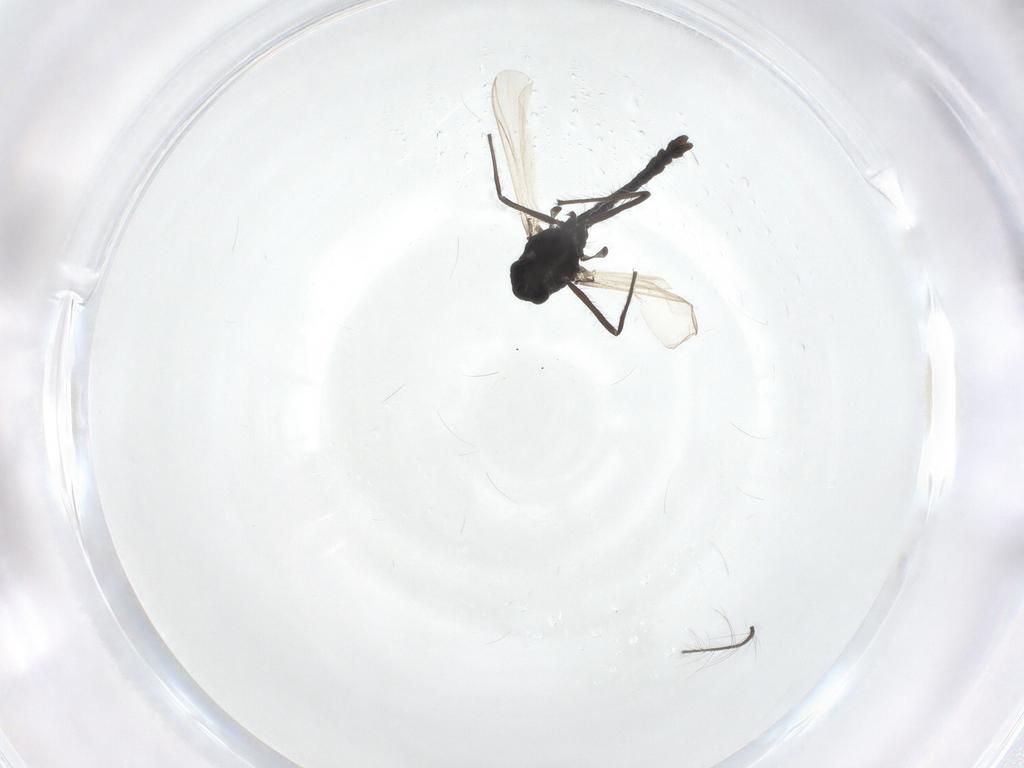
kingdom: Animalia
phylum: Arthropoda
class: Insecta
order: Diptera
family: Chironomidae
